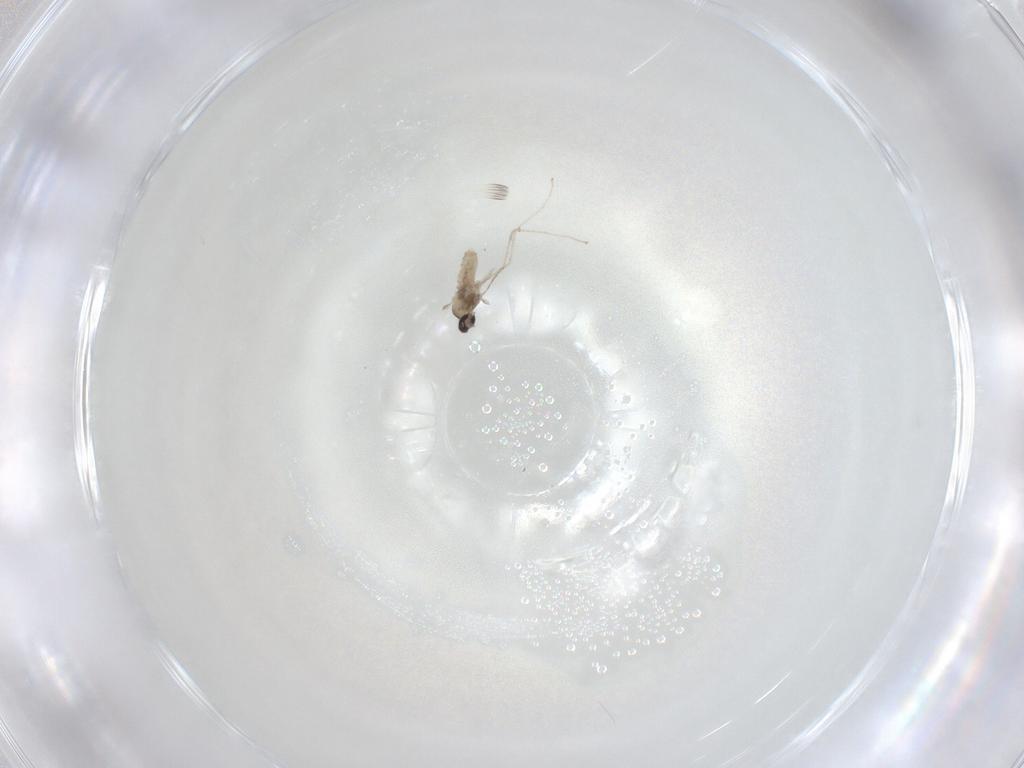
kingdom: Animalia
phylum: Arthropoda
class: Insecta
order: Diptera
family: Cecidomyiidae
